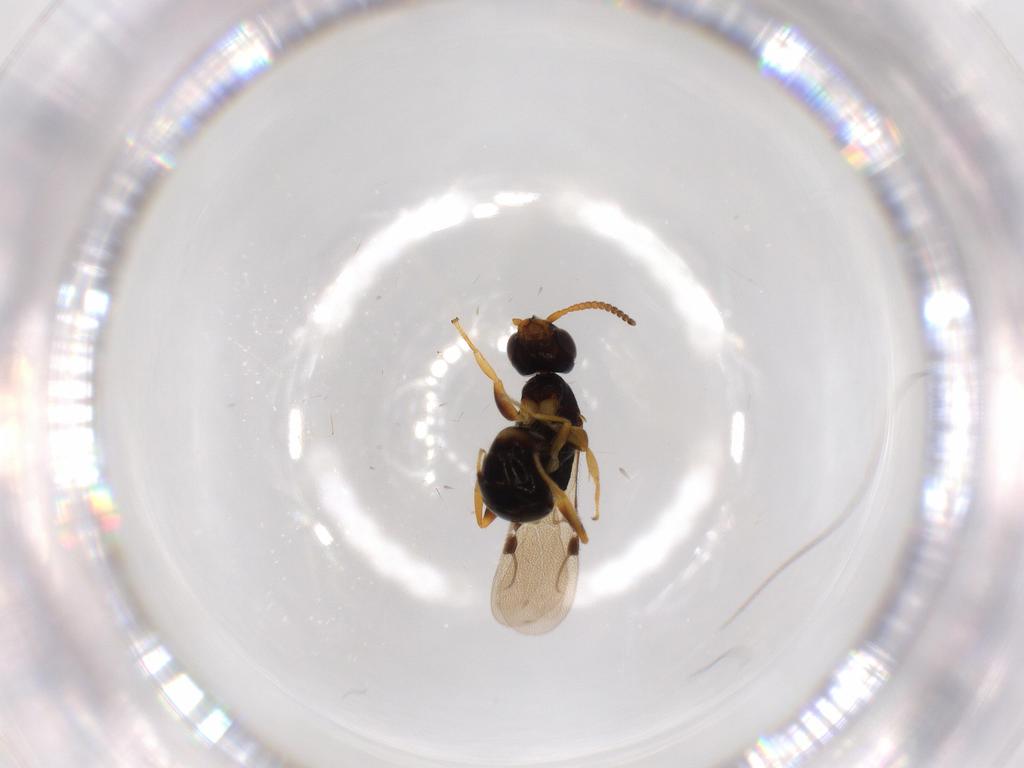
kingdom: Animalia
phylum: Arthropoda
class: Insecta
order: Hymenoptera
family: Bethylidae
